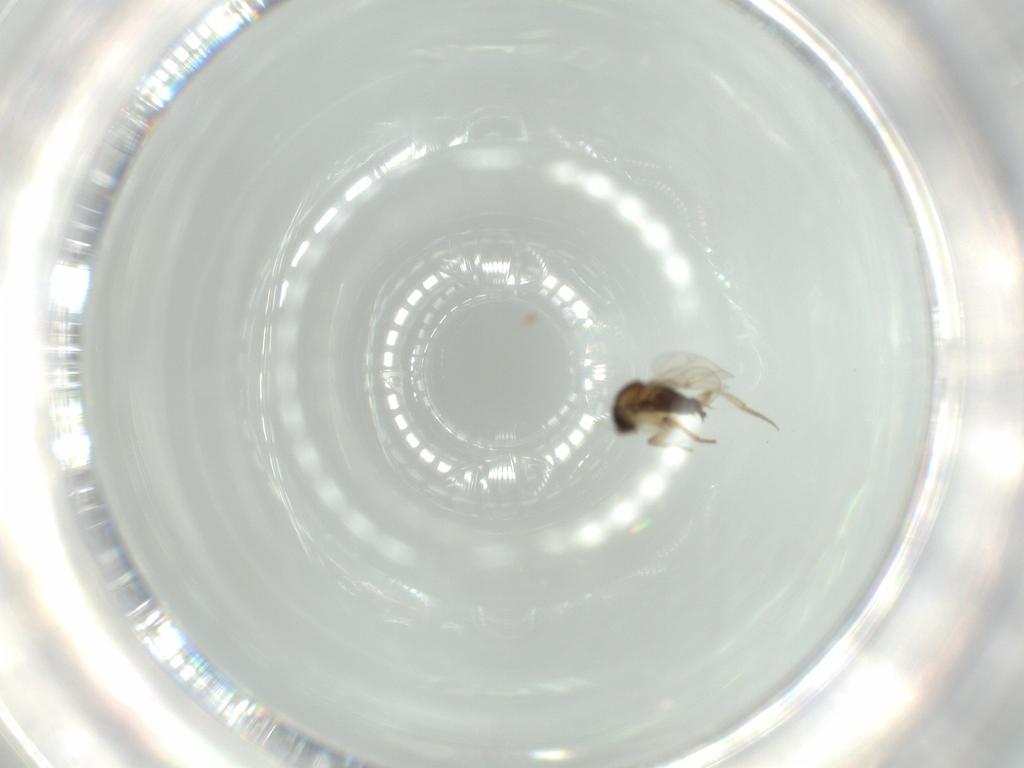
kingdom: Animalia
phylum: Arthropoda
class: Insecta
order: Diptera
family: Phoridae
